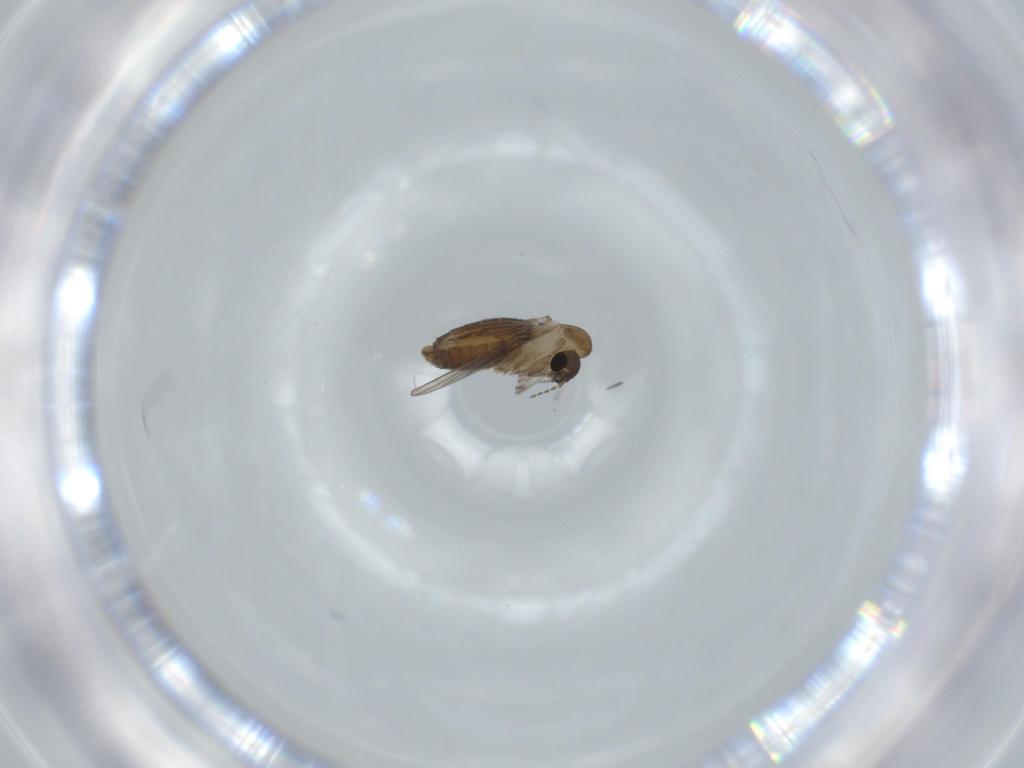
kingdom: Animalia
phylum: Arthropoda
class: Insecta
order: Diptera
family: Psychodidae
